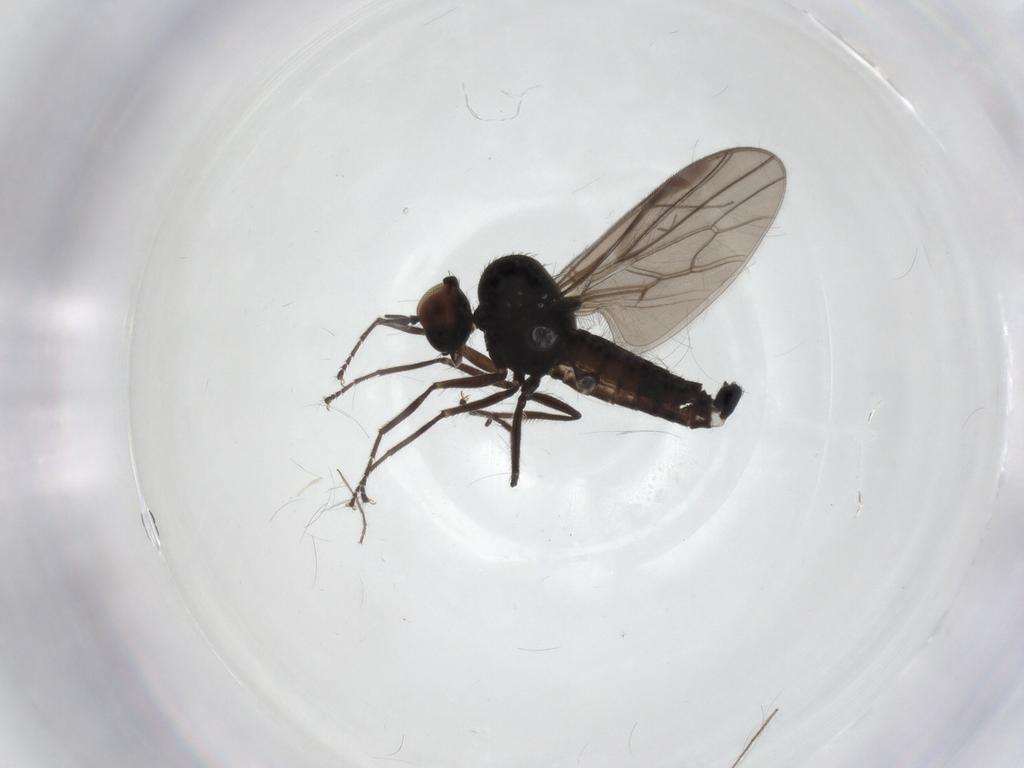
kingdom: Animalia
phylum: Arthropoda
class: Insecta
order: Diptera
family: Hybotidae
